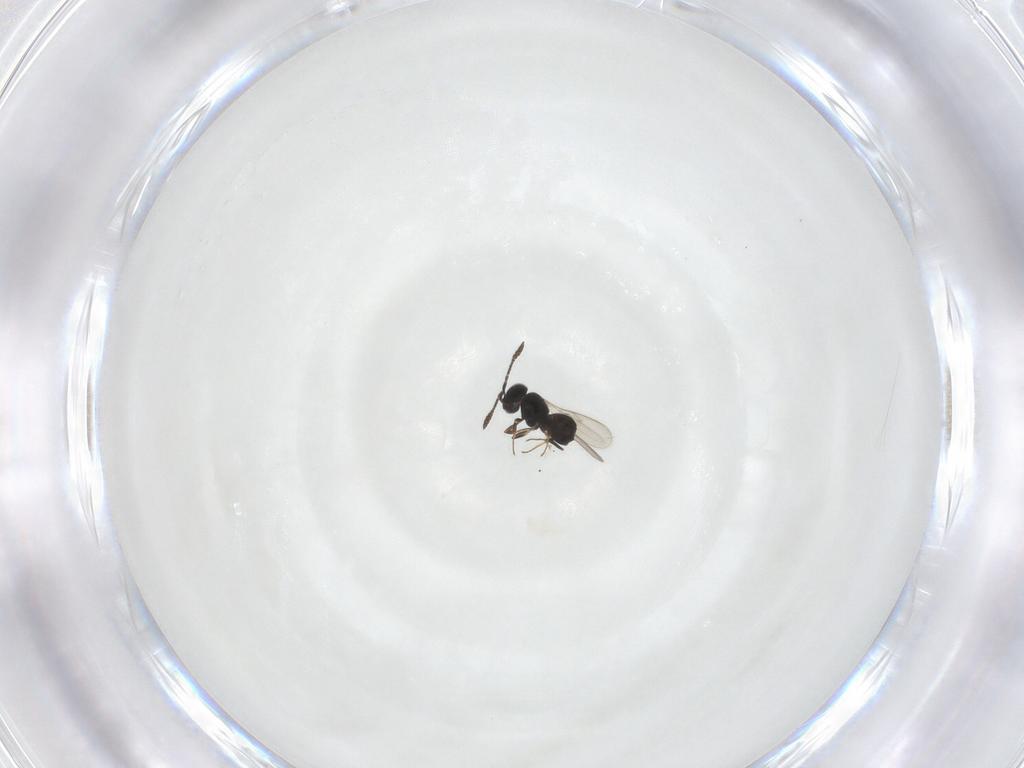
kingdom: Animalia
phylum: Arthropoda
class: Insecta
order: Hymenoptera
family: Scelionidae
